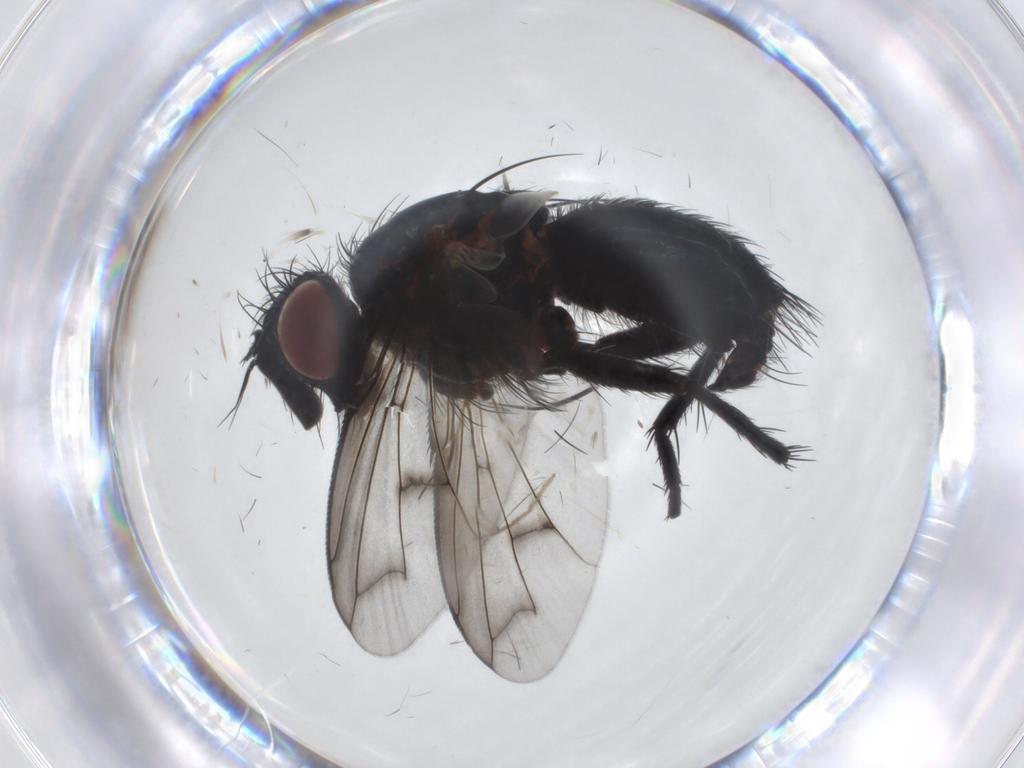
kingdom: Animalia
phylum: Arthropoda
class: Insecta
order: Diptera
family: Tachinidae
